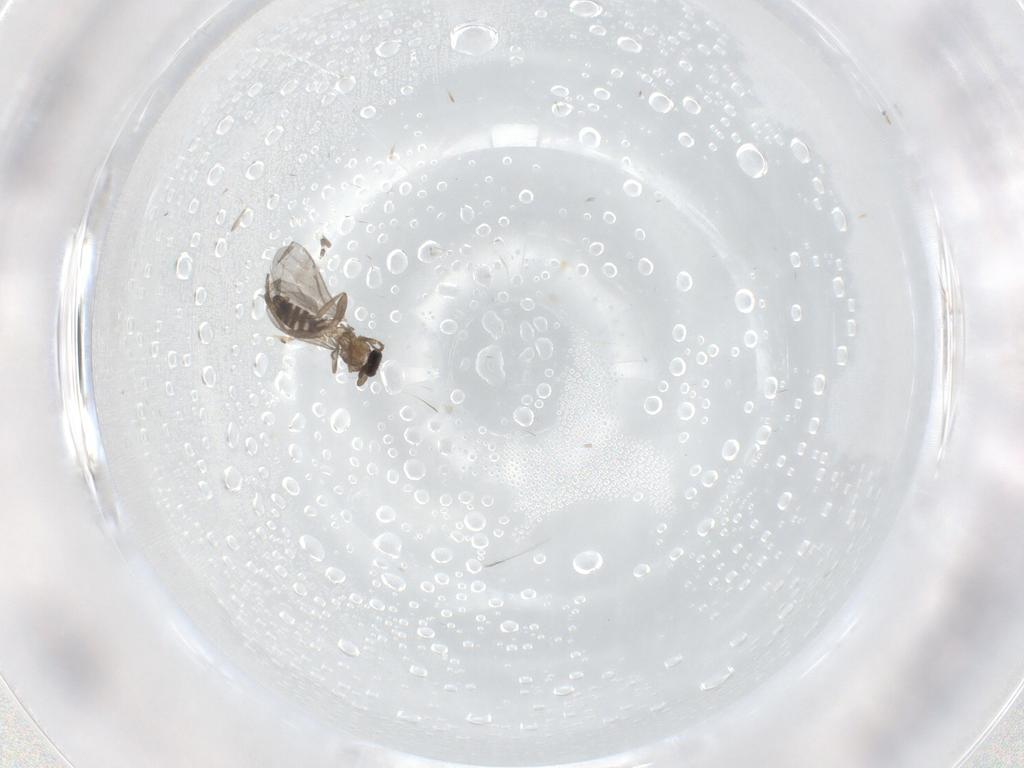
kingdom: Animalia
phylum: Arthropoda
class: Insecta
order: Diptera
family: Cecidomyiidae
